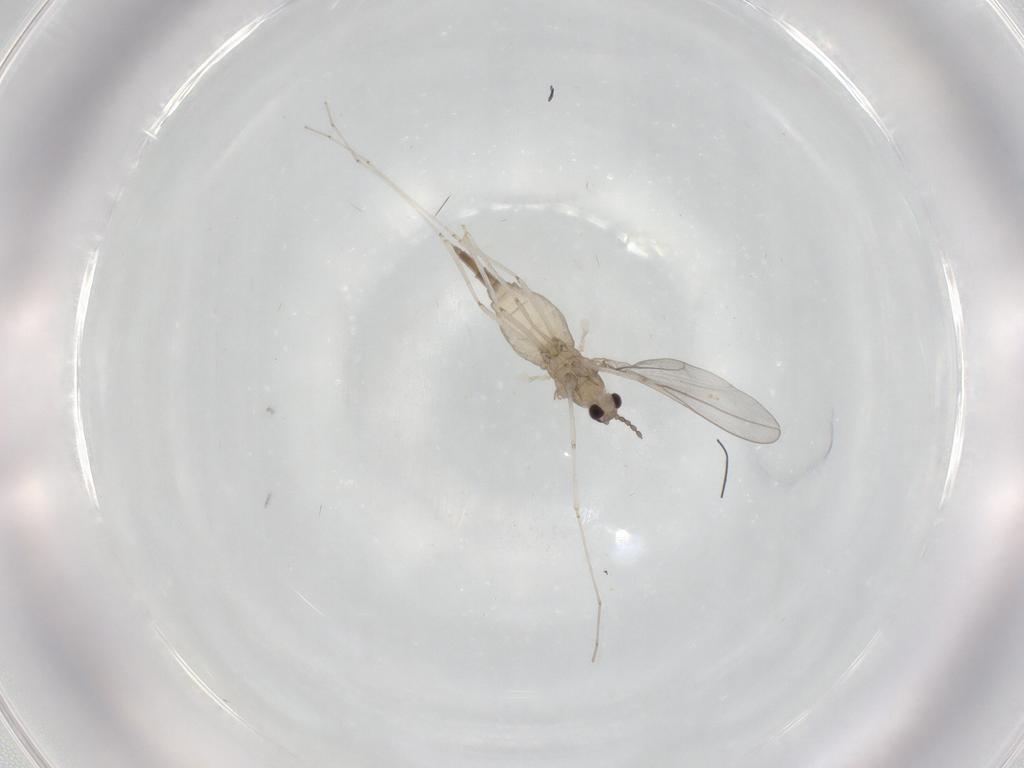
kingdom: Animalia
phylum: Arthropoda
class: Insecta
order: Diptera
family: Cecidomyiidae
